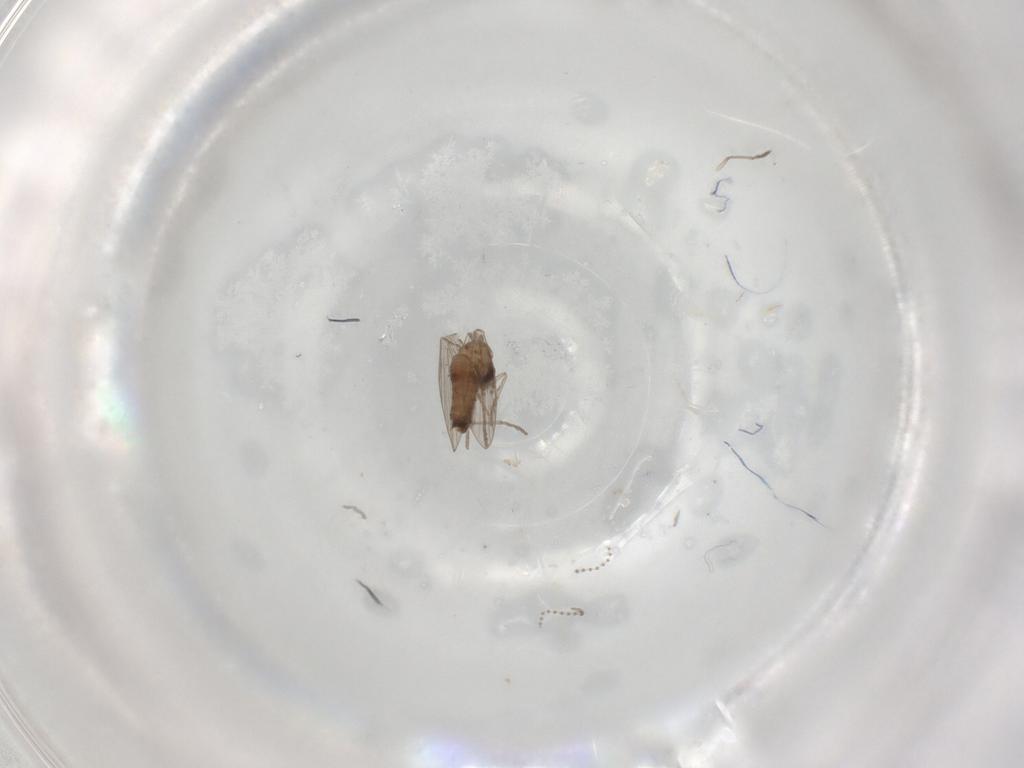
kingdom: Animalia
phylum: Arthropoda
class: Insecta
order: Diptera
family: Psychodidae
